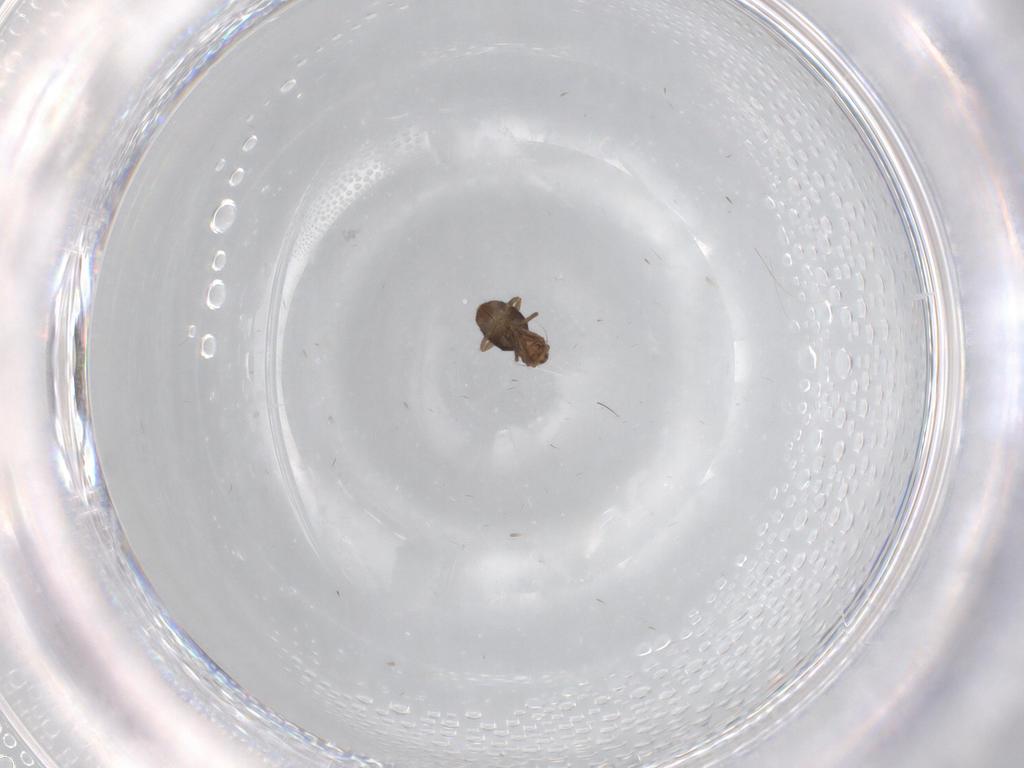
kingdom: Animalia
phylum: Arthropoda
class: Insecta
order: Diptera
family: Phoridae
